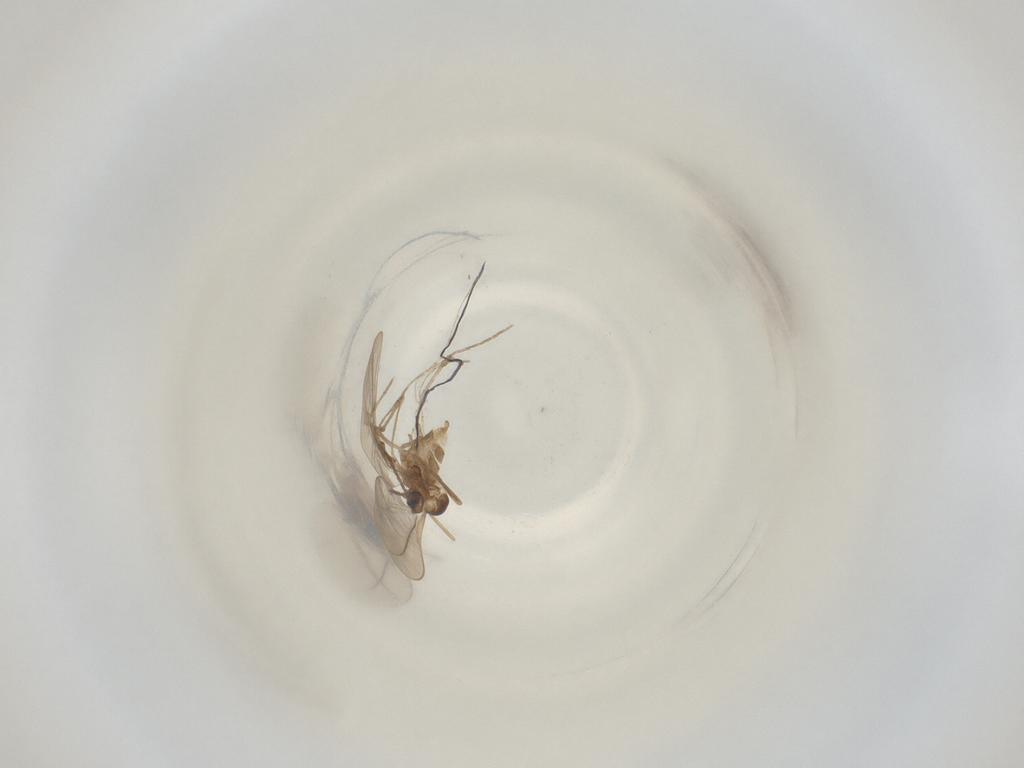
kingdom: Animalia
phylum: Arthropoda
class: Insecta
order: Diptera
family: Cecidomyiidae
